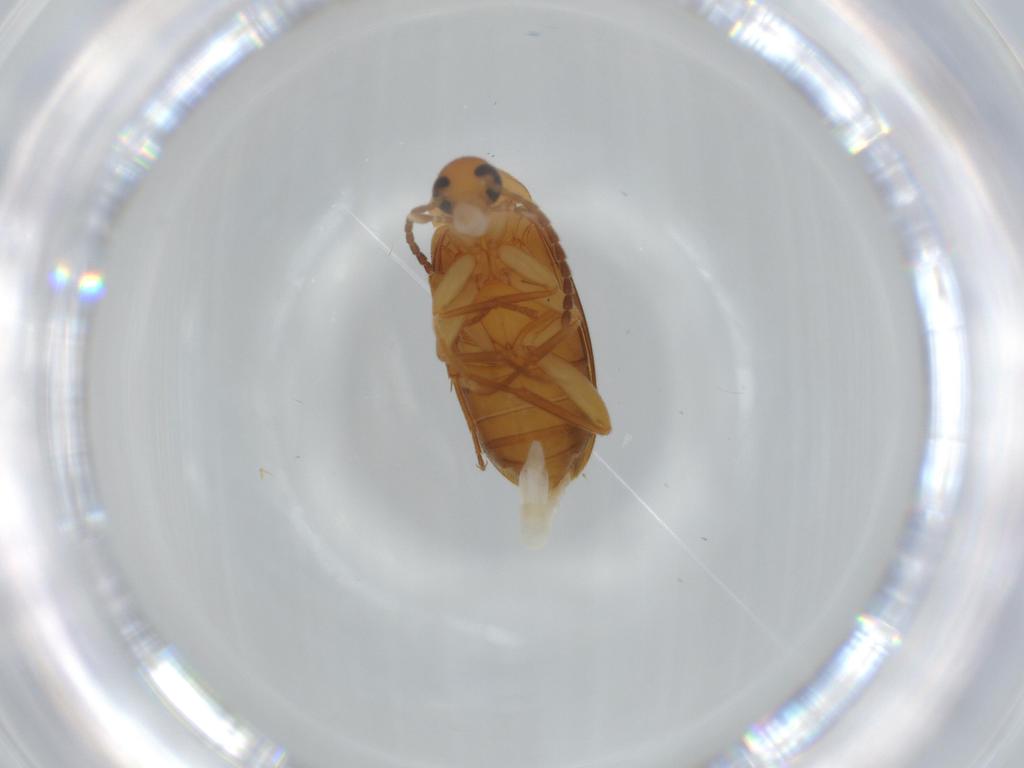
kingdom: Animalia
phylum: Arthropoda
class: Insecta
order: Coleoptera
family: Scraptiidae
